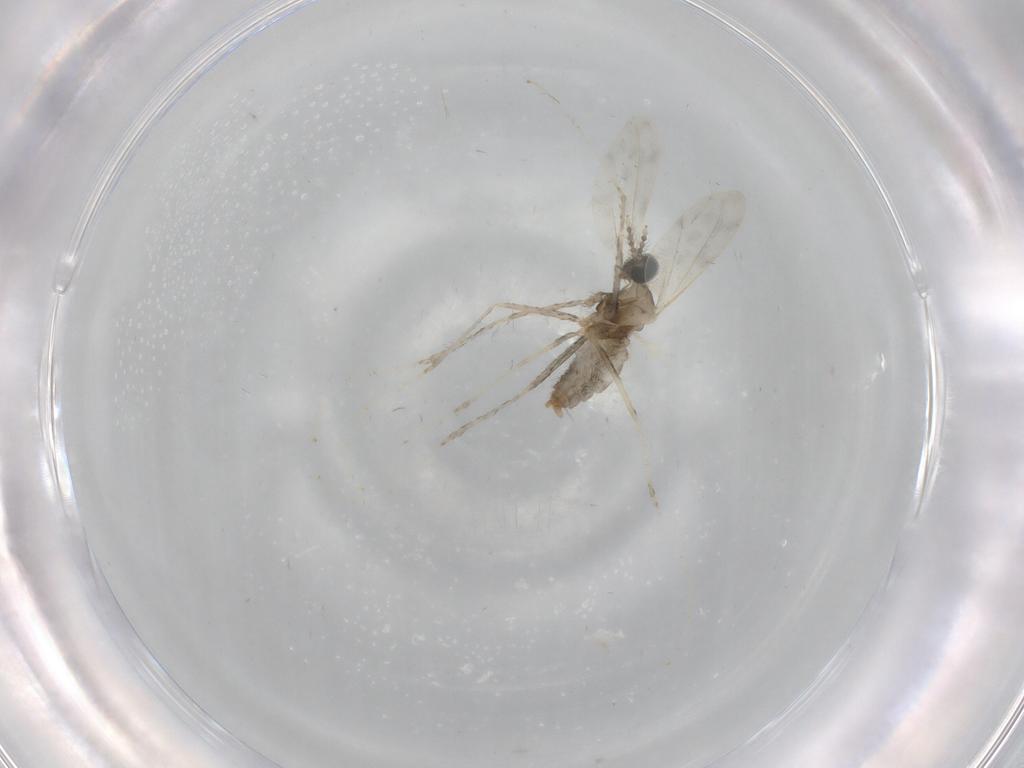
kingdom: Animalia
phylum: Arthropoda
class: Insecta
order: Diptera
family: Cecidomyiidae
